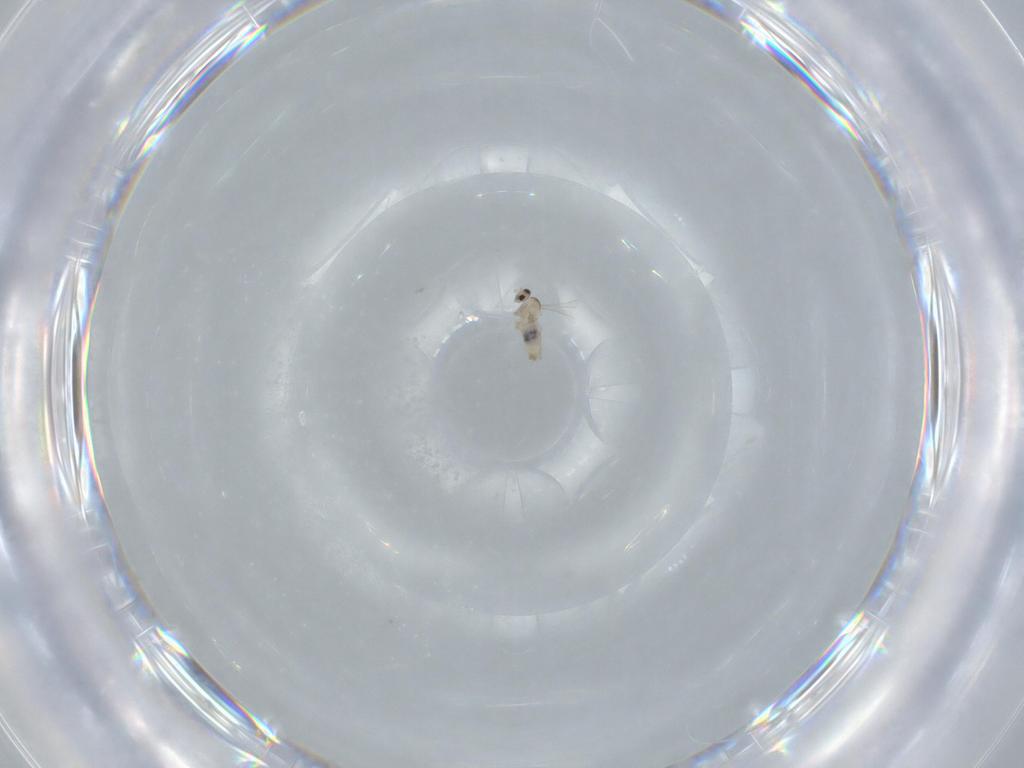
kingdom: Animalia
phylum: Arthropoda
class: Insecta
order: Diptera
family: Cecidomyiidae
